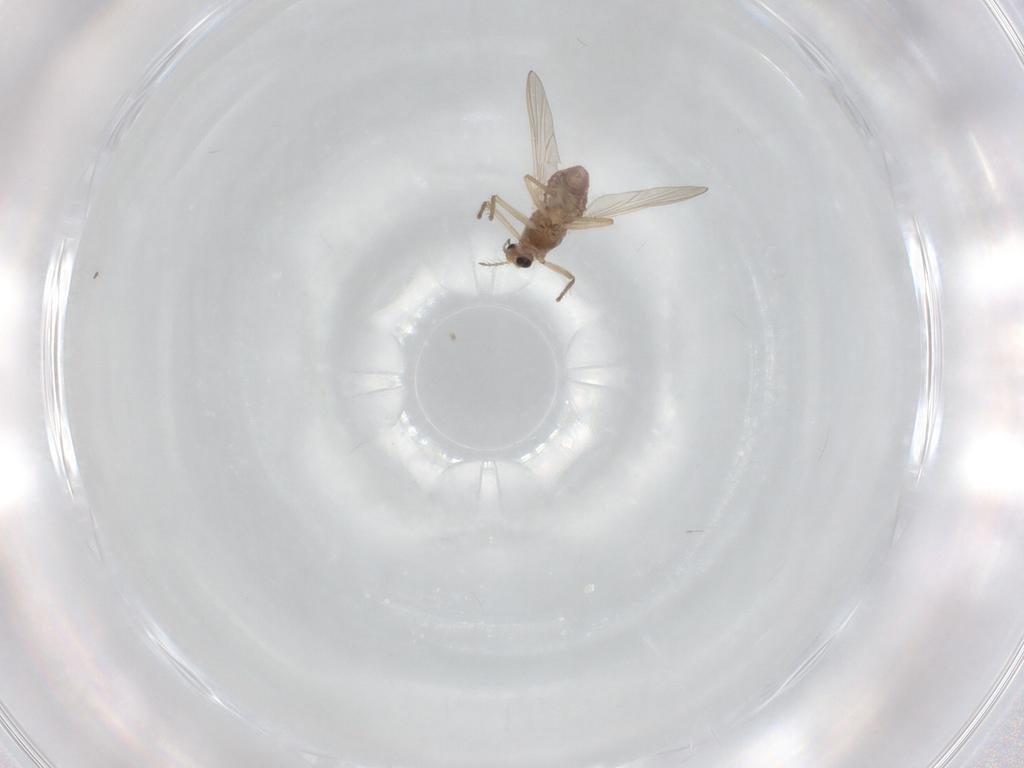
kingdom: Animalia
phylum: Arthropoda
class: Insecta
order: Diptera
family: Chironomidae
